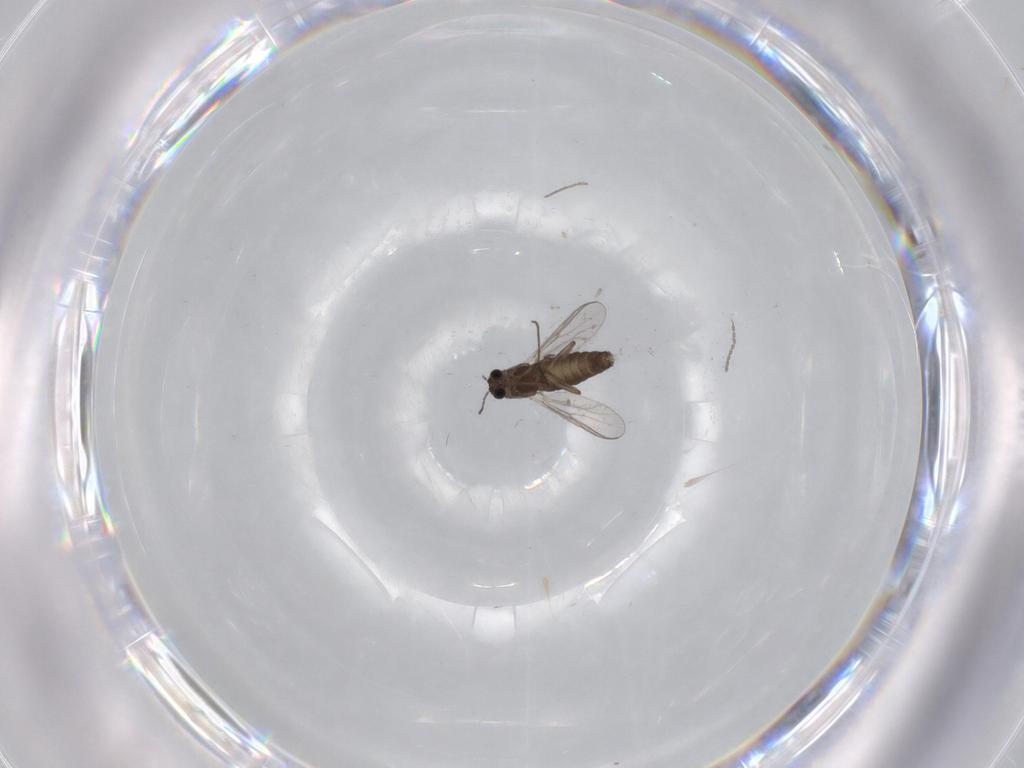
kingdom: Animalia
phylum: Arthropoda
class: Insecta
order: Diptera
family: Chironomidae
